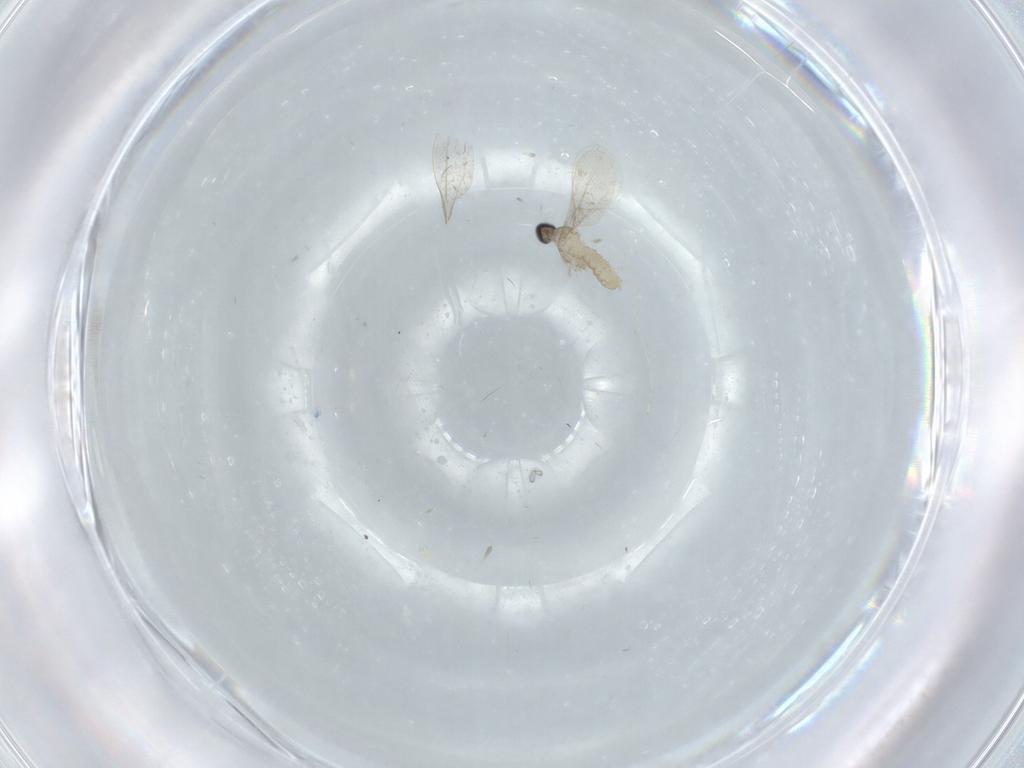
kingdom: Animalia
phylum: Arthropoda
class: Insecta
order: Diptera
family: Cecidomyiidae
